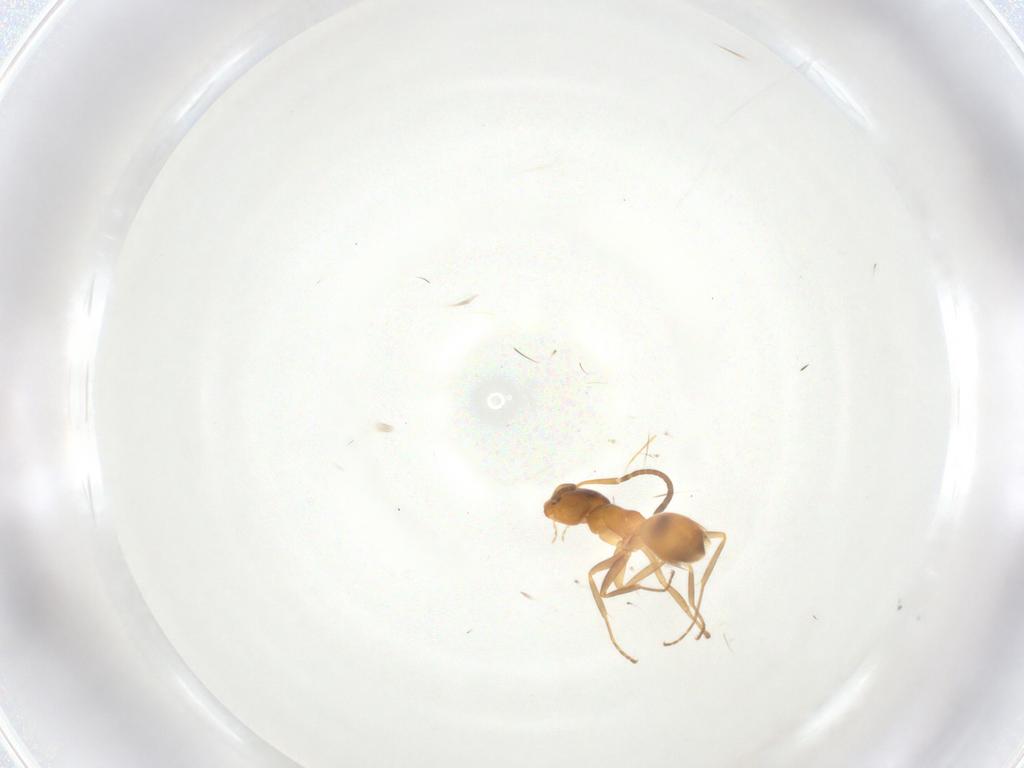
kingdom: Animalia
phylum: Arthropoda
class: Insecta
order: Hymenoptera
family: Formicidae
